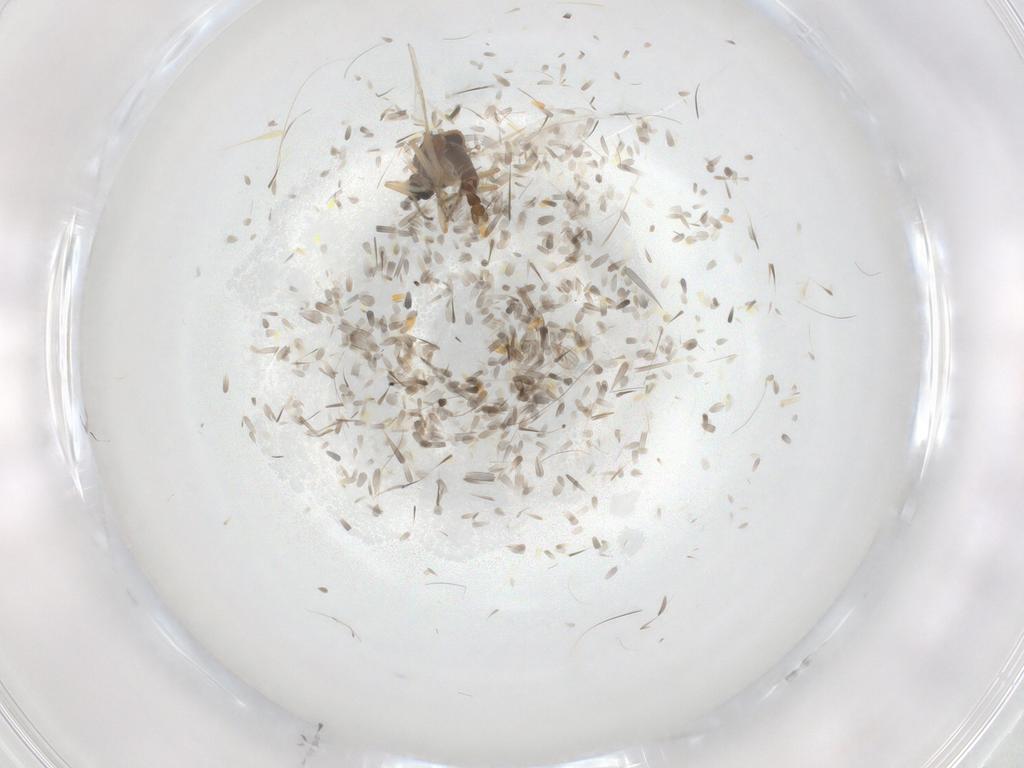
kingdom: Animalia
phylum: Arthropoda
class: Insecta
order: Diptera
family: Ceratopogonidae
